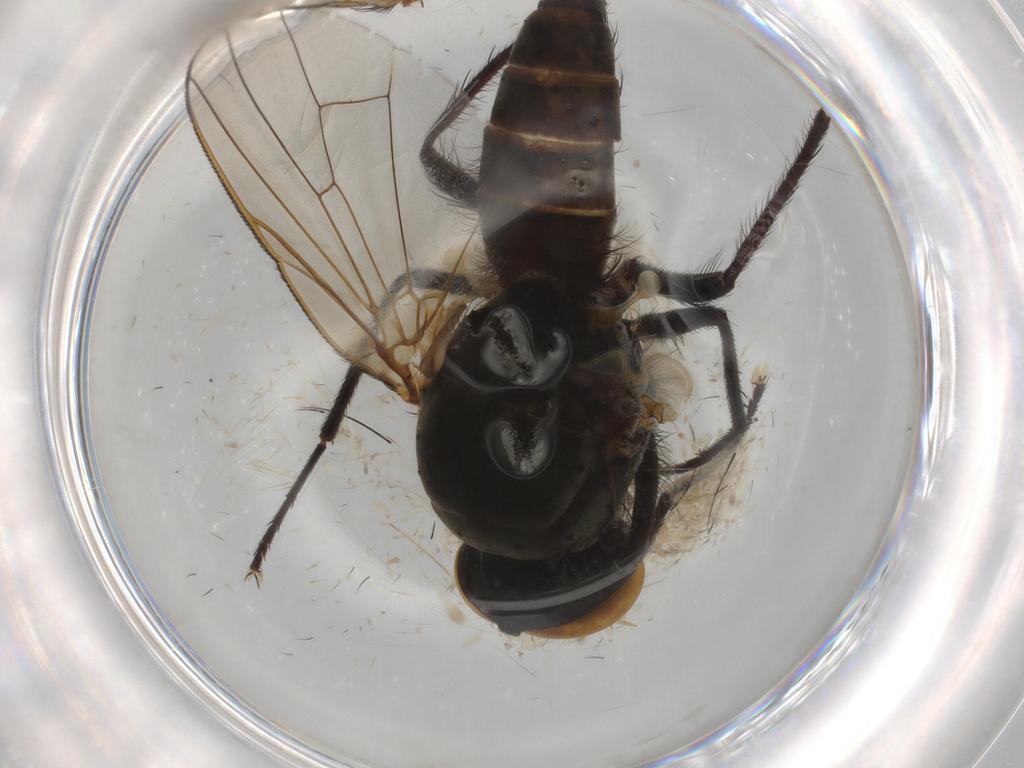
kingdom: Animalia
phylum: Arthropoda
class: Insecta
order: Diptera
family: Anthomyiidae
